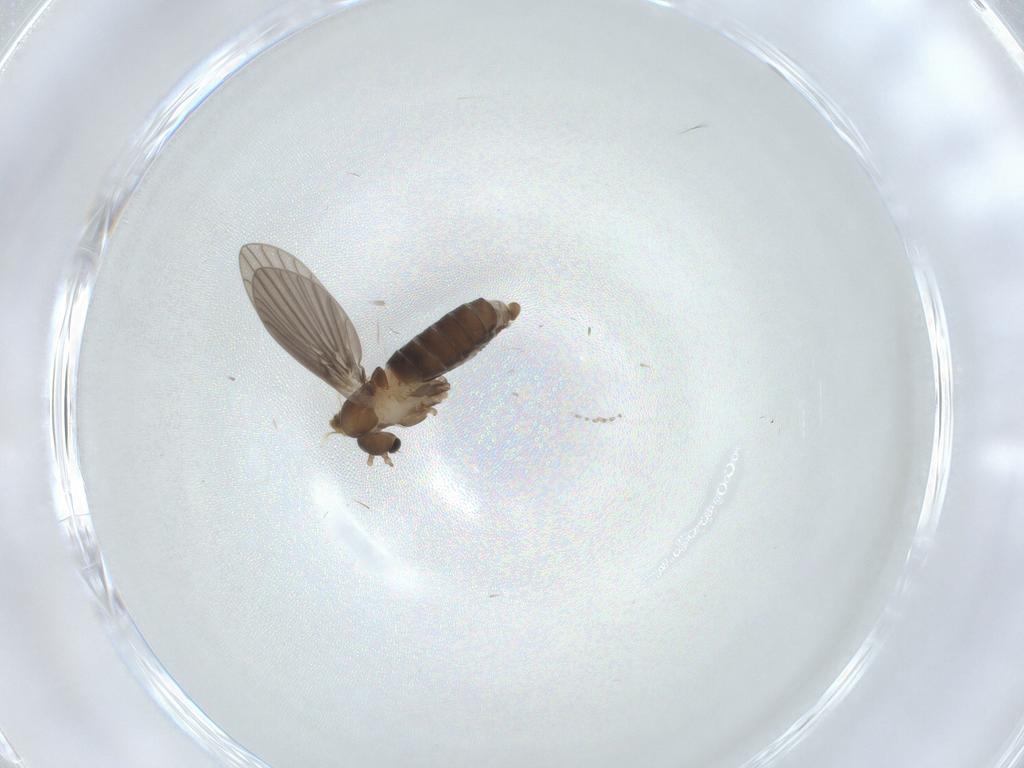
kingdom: Animalia
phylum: Arthropoda
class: Insecta
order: Diptera
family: Psychodidae
